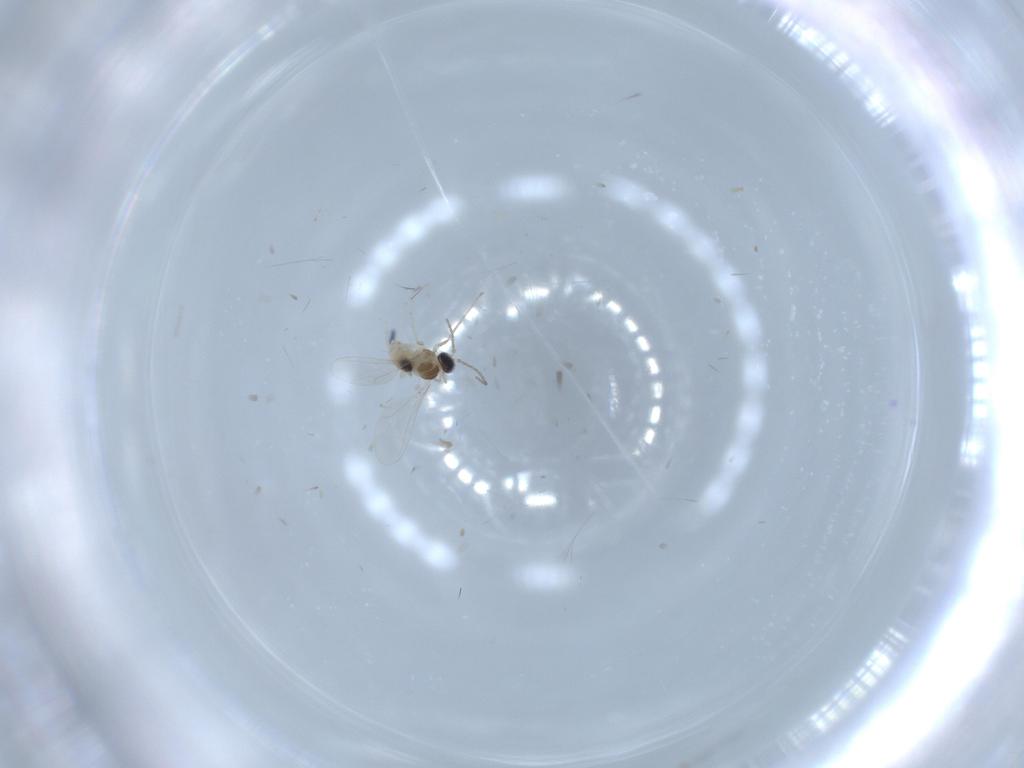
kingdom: Animalia
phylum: Arthropoda
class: Insecta
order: Diptera
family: Cecidomyiidae
